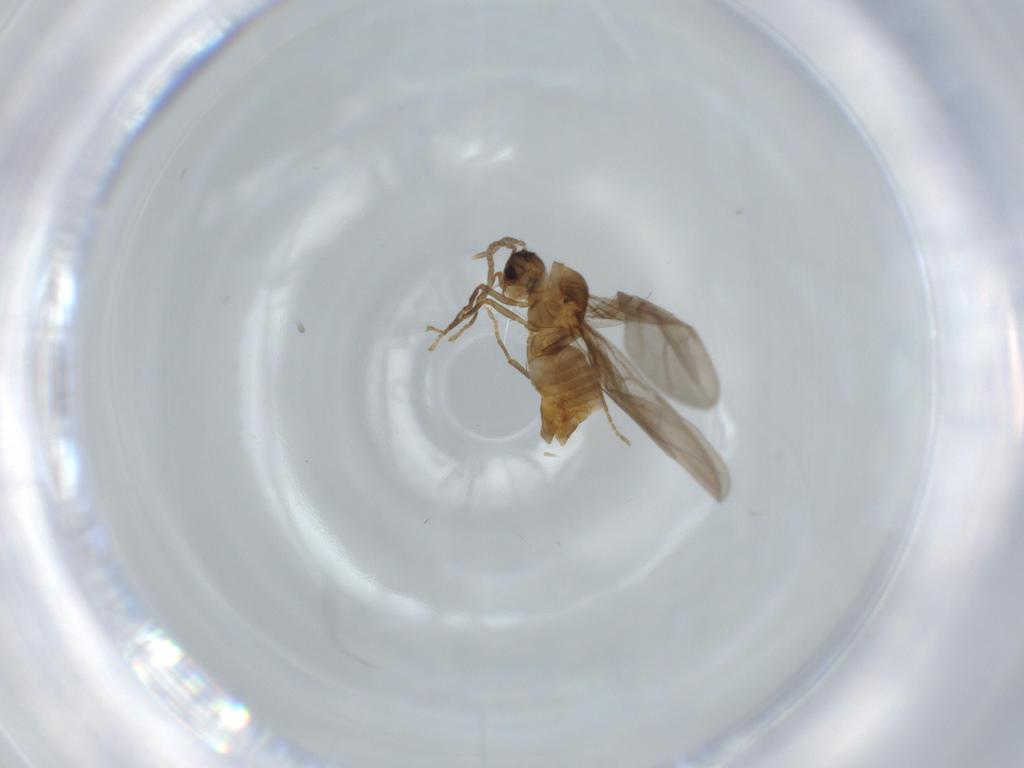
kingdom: Animalia
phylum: Arthropoda
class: Insecta
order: Hymenoptera
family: Formicidae
